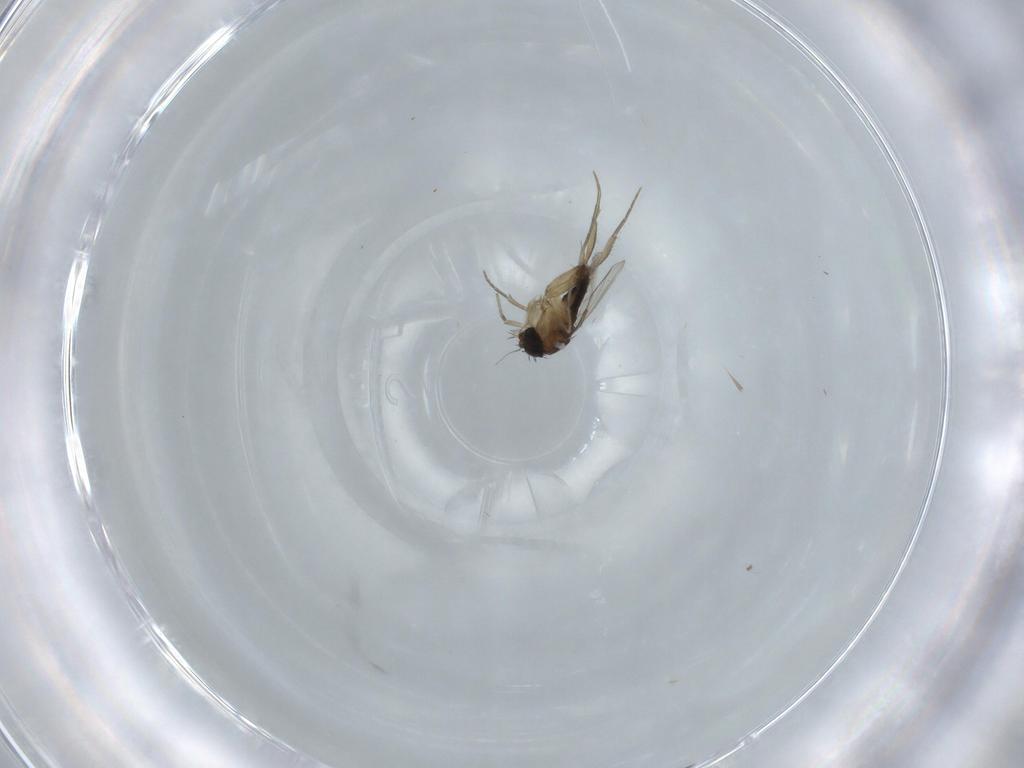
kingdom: Animalia
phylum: Arthropoda
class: Insecta
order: Diptera
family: Phoridae
